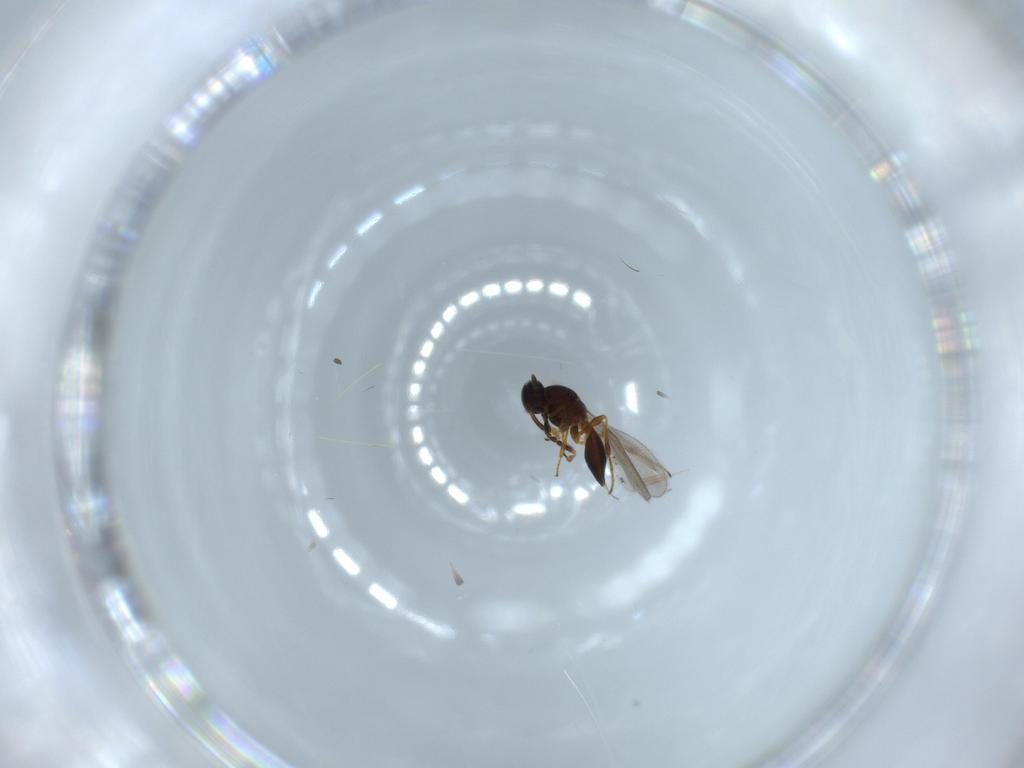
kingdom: Animalia
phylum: Arthropoda
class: Insecta
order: Hymenoptera
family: Platygastridae
